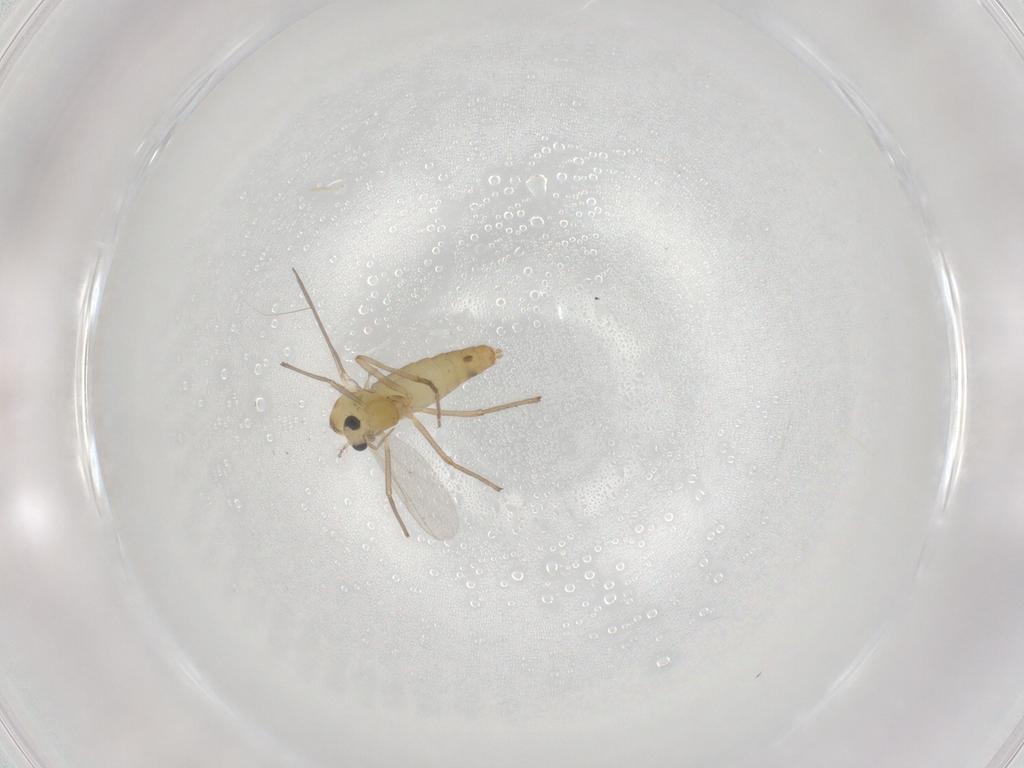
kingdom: Animalia
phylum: Arthropoda
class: Insecta
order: Diptera
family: Chironomidae
